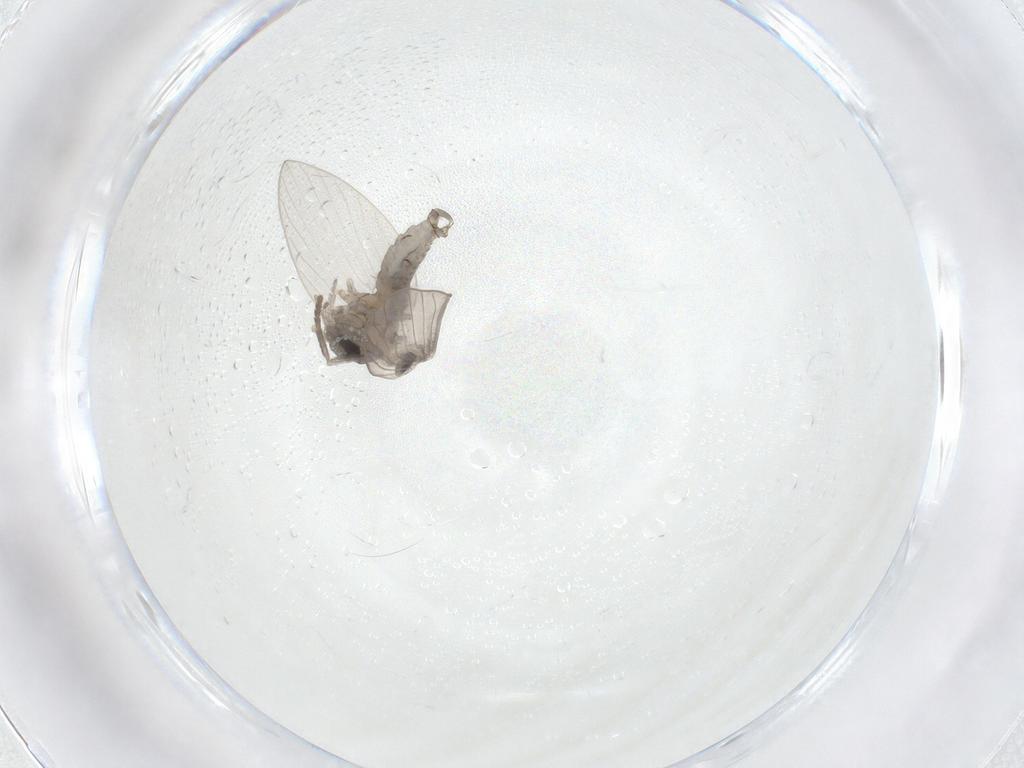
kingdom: Animalia
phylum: Arthropoda
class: Insecta
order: Diptera
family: Psychodidae
